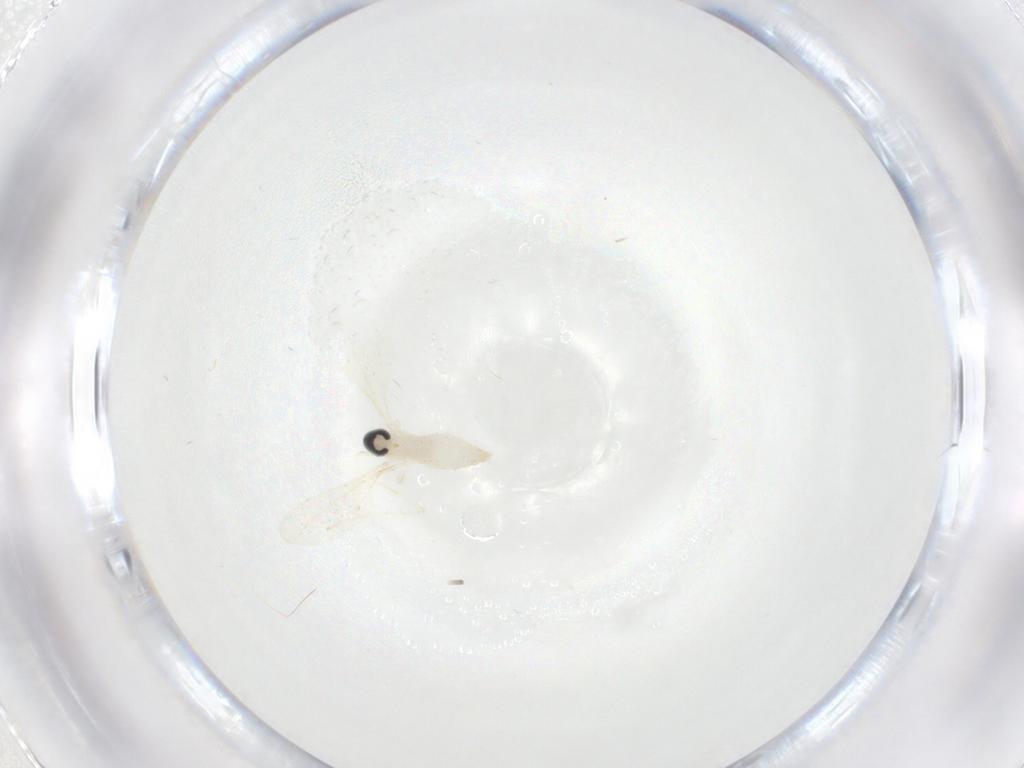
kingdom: Animalia
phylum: Arthropoda
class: Insecta
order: Diptera
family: Cecidomyiidae
